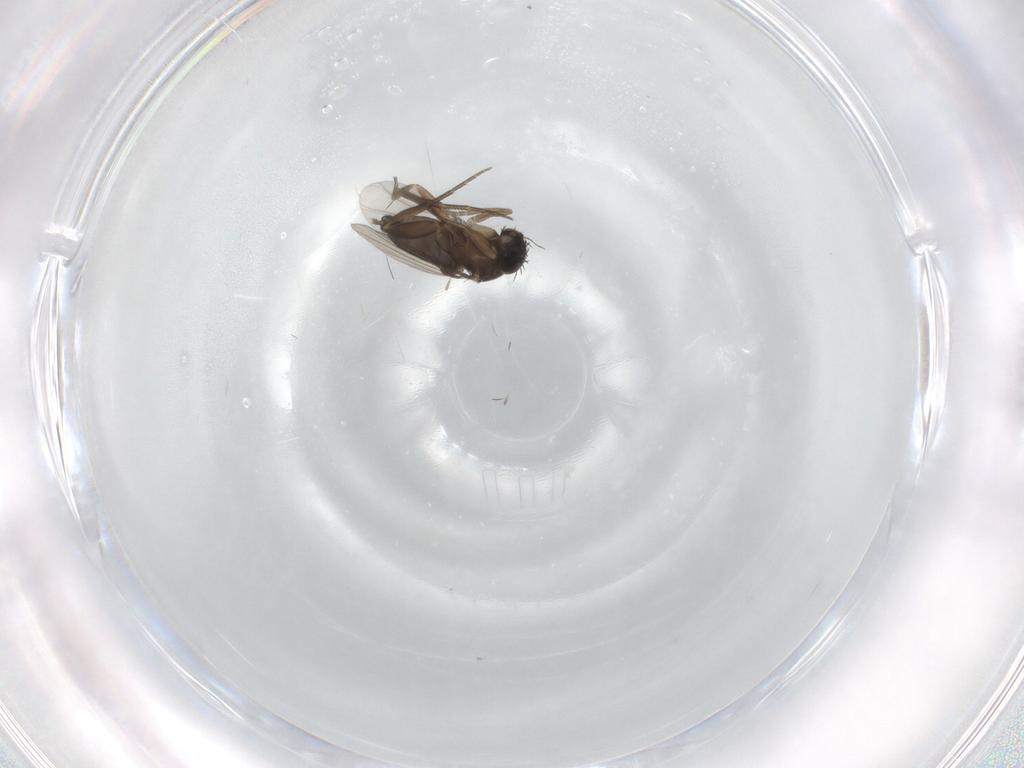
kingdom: Animalia
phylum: Arthropoda
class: Insecta
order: Diptera
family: Phoridae
